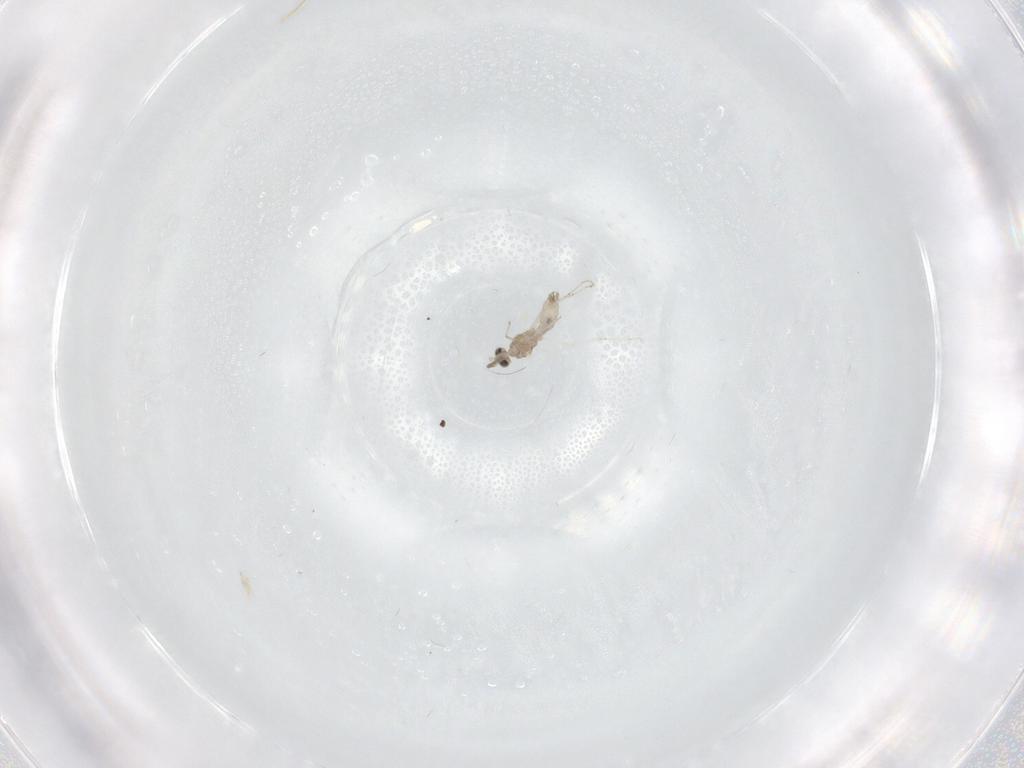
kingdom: Animalia
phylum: Arthropoda
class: Insecta
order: Diptera
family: Cecidomyiidae
